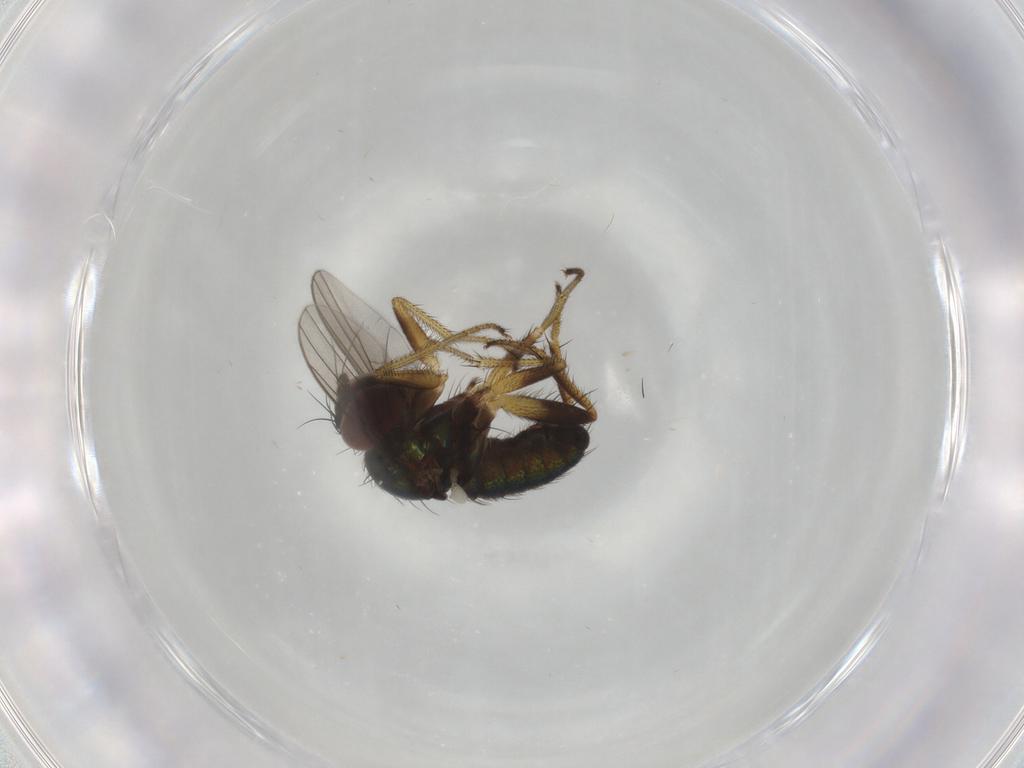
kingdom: Animalia
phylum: Arthropoda
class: Insecta
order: Diptera
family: Dolichopodidae
